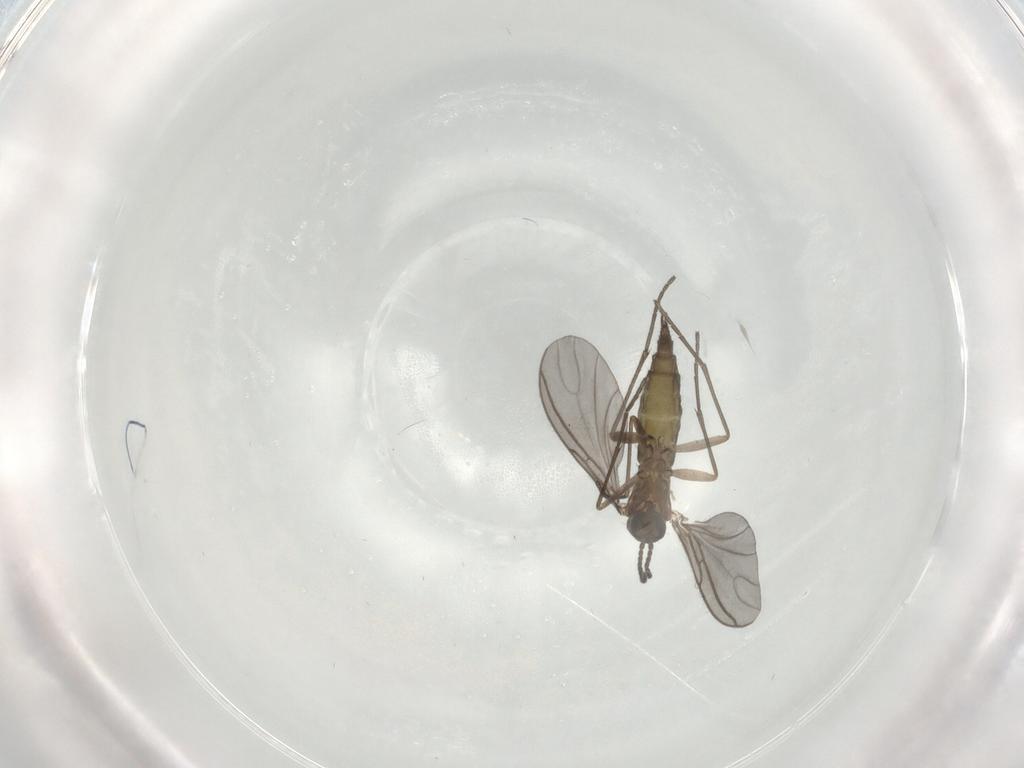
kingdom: Animalia
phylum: Arthropoda
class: Insecta
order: Diptera
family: Sciaridae
